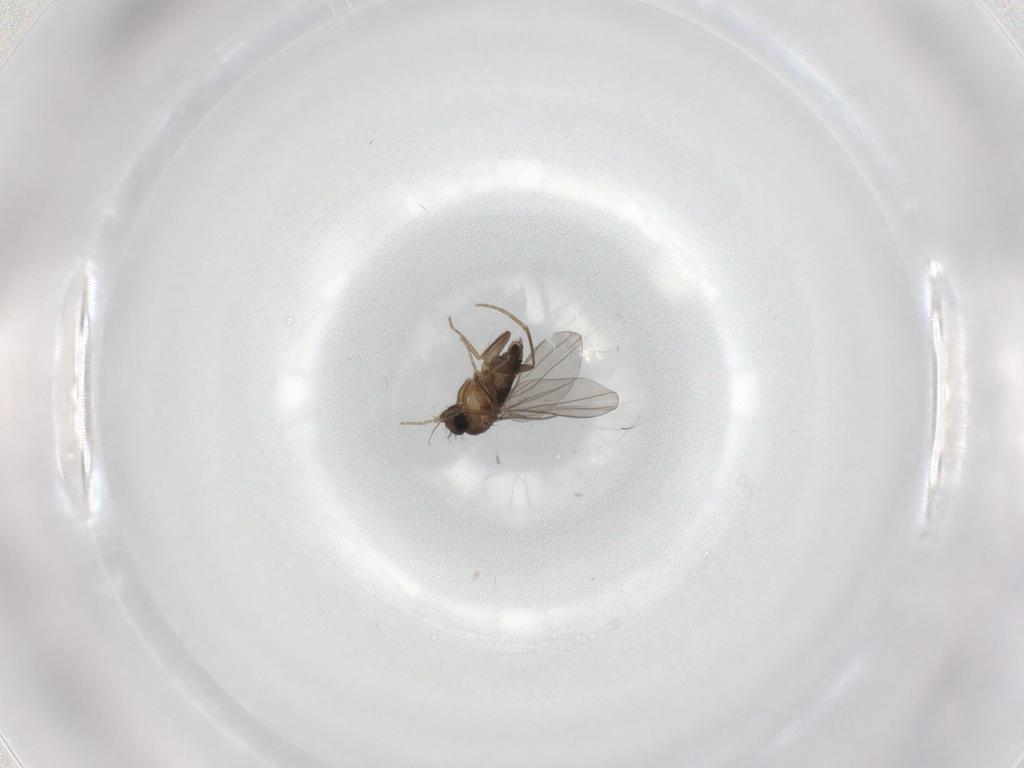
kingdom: Animalia
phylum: Arthropoda
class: Insecta
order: Diptera
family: Phoridae
